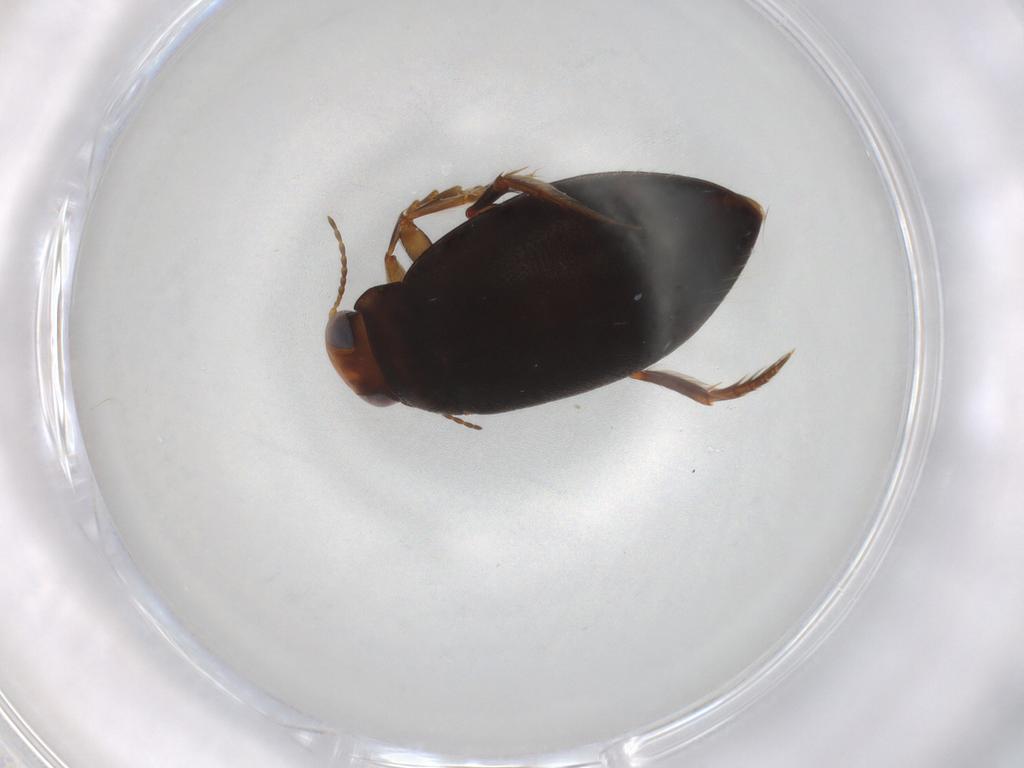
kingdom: Animalia
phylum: Arthropoda
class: Insecta
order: Coleoptera
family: Hydrophilidae
